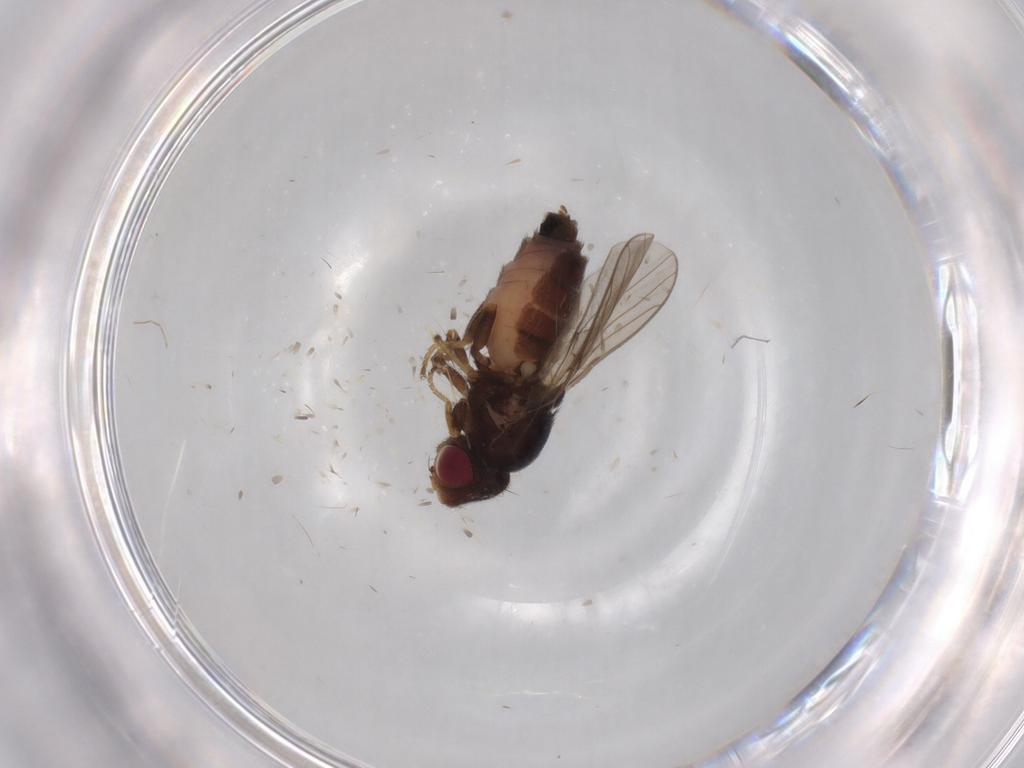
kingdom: Animalia
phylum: Arthropoda
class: Insecta
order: Diptera
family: Chloropidae
